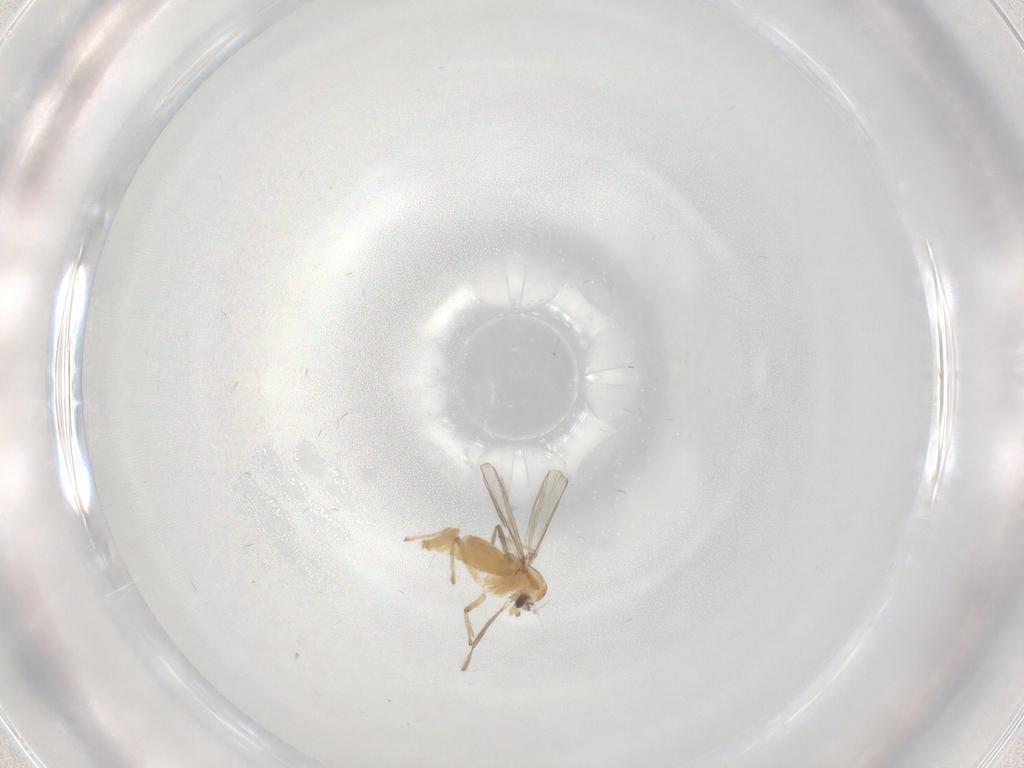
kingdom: Animalia
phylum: Arthropoda
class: Insecta
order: Diptera
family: Chironomidae
